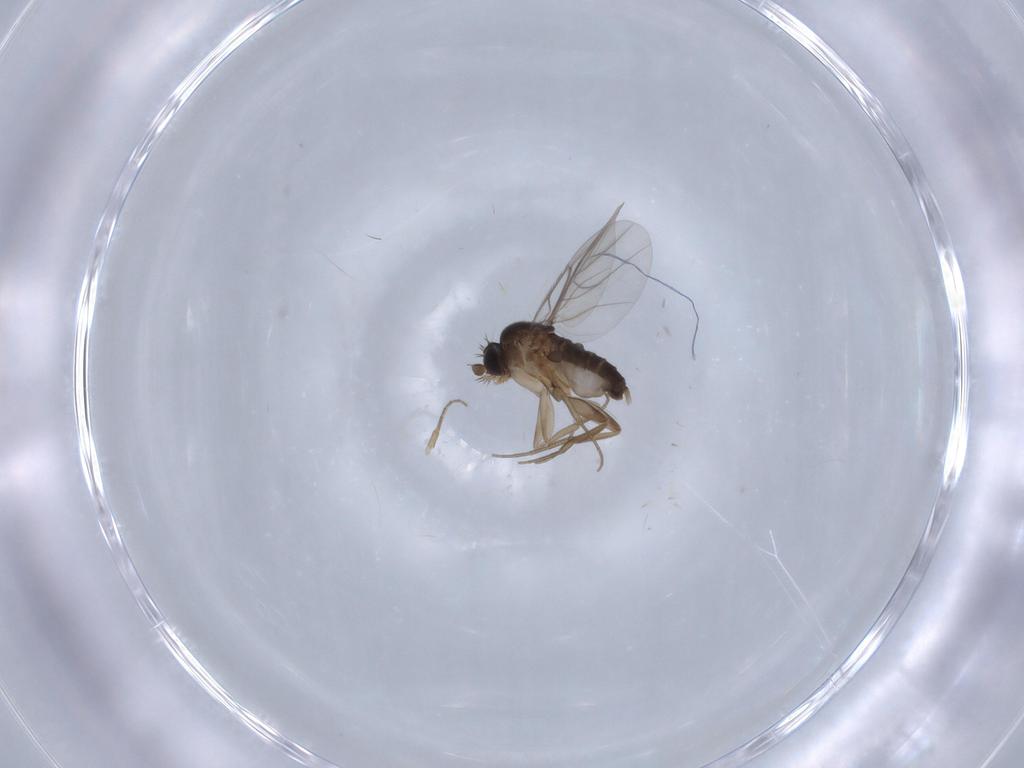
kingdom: Animalia
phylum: Arthropoda
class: Insecta
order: Diptera
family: Phoridae
